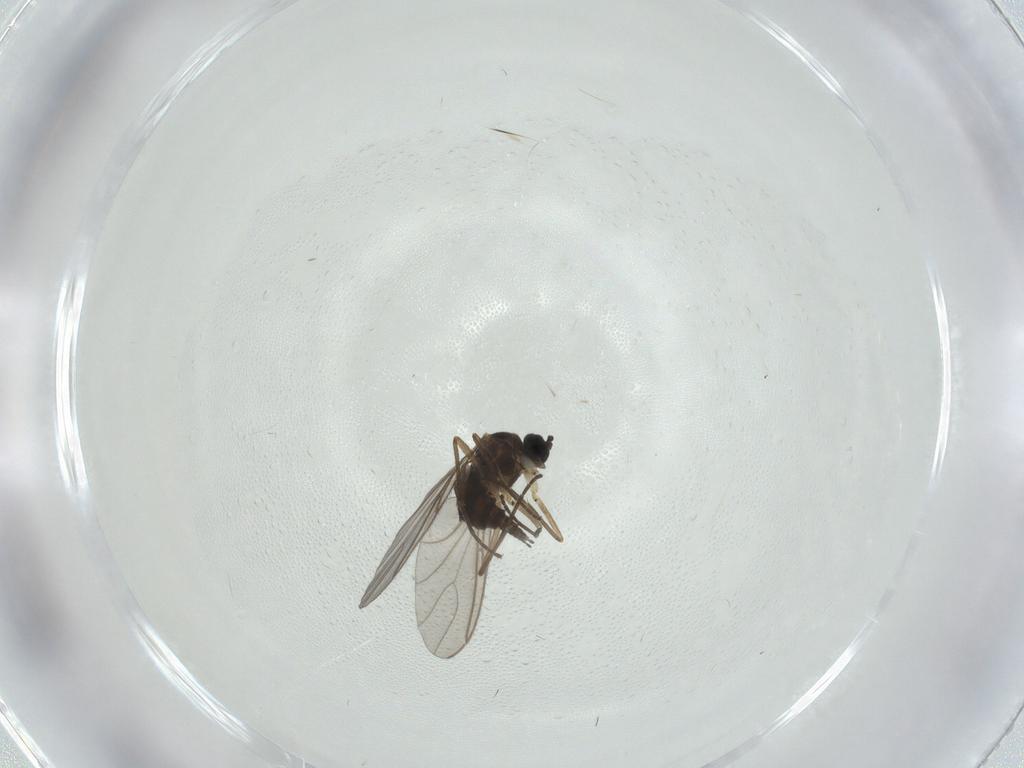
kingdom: Animalia
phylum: Arthropoda
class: Insecta
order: Diptera
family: Sciaridae
